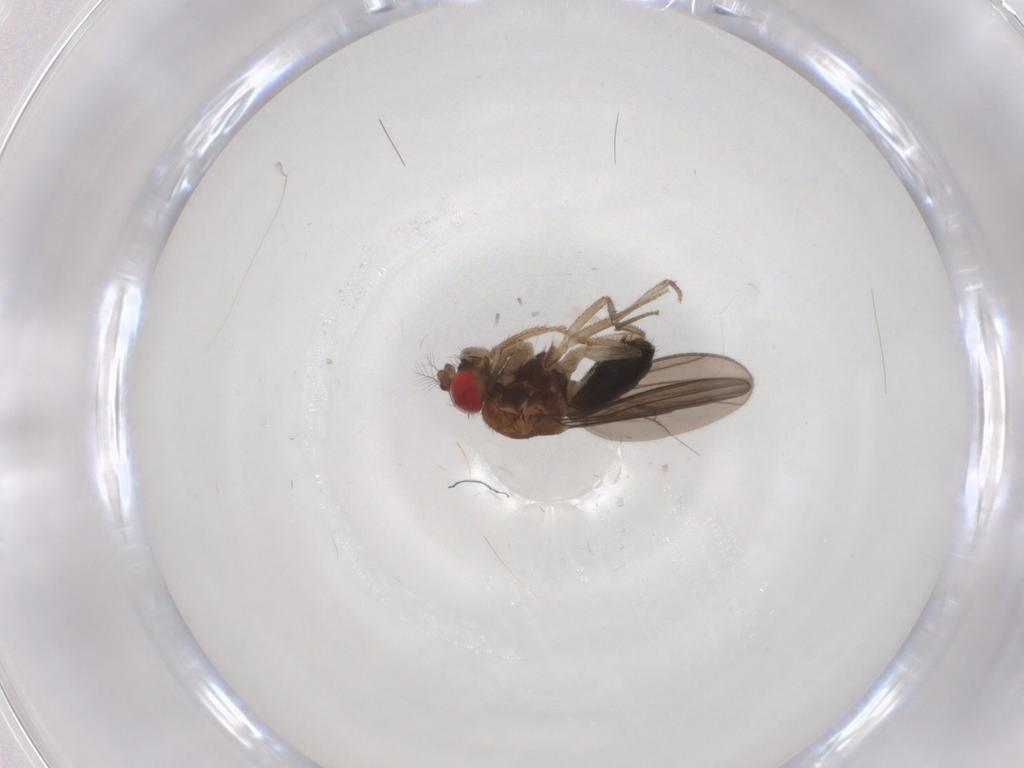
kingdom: Animalia
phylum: Arthropoda
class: Insecta
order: Diptera
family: Drosophilidae
